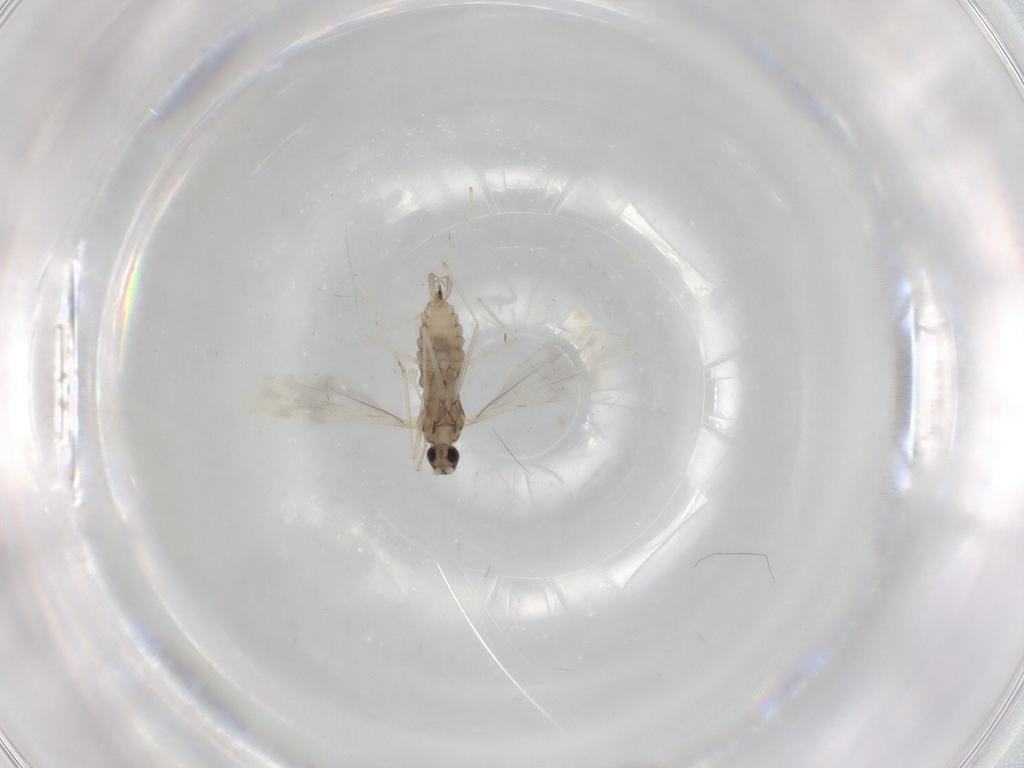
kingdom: Animalia
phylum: Arthropoda
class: Insecta
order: Diptera
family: Cecidomyiidae
